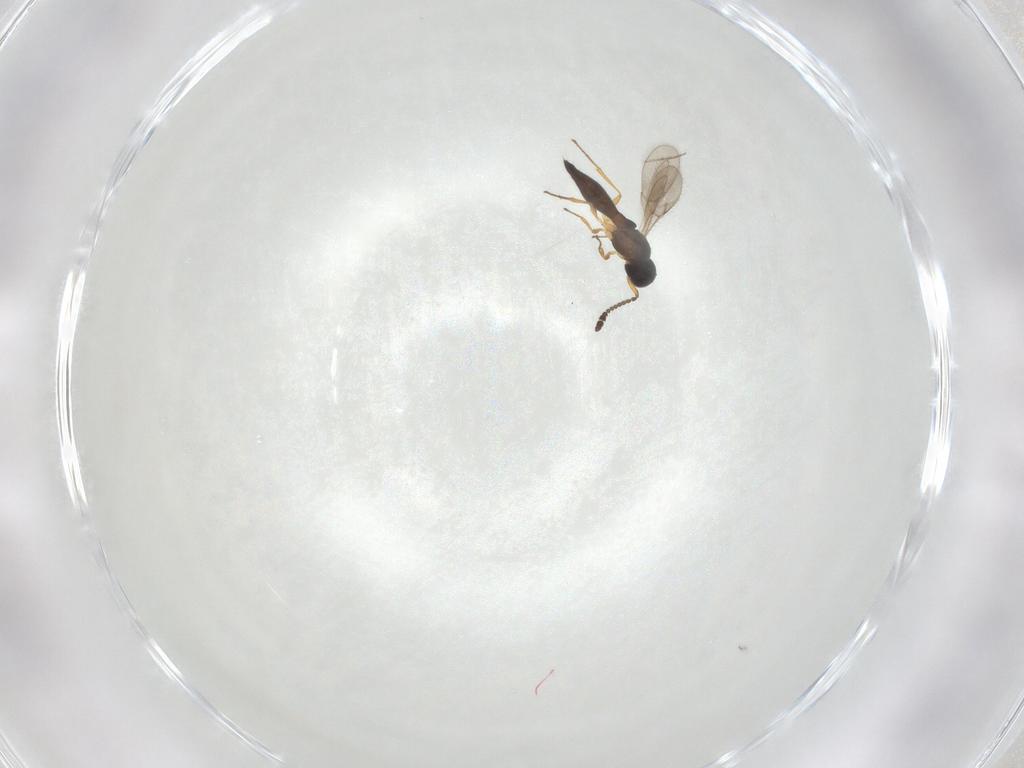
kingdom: Animalia
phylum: Arthropoda
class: Insecta
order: Hymenoptera
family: Scelionidae
